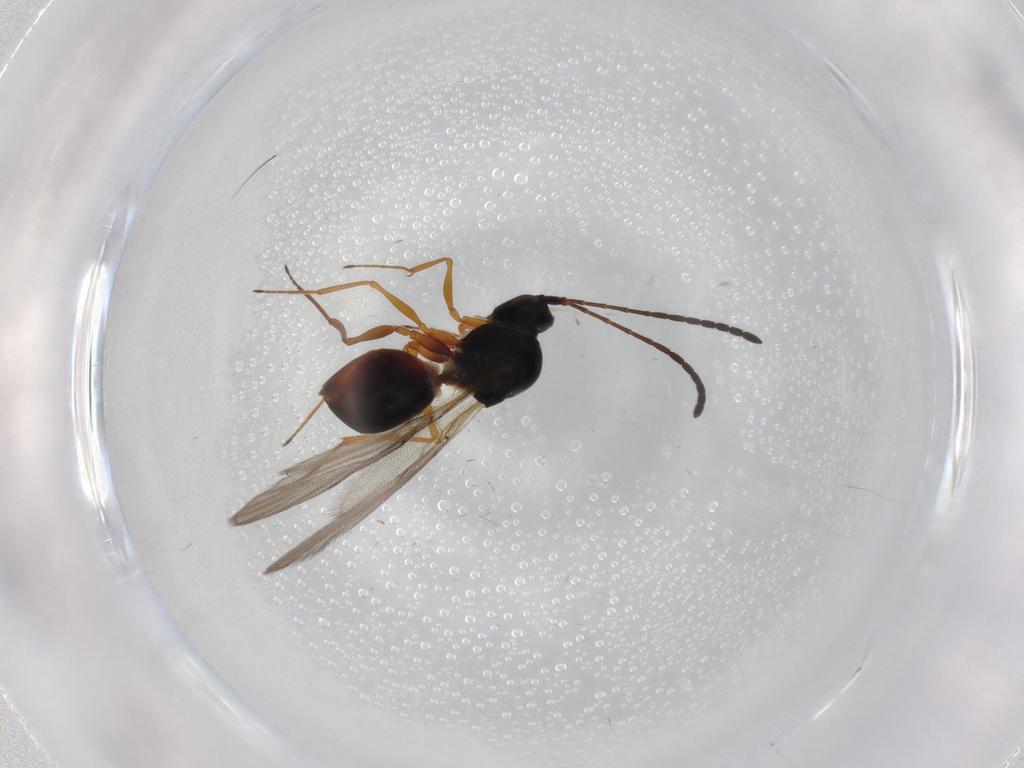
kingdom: Animalia
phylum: Arthropoda
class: Insecta
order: Hymenoptera
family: Figitidae
